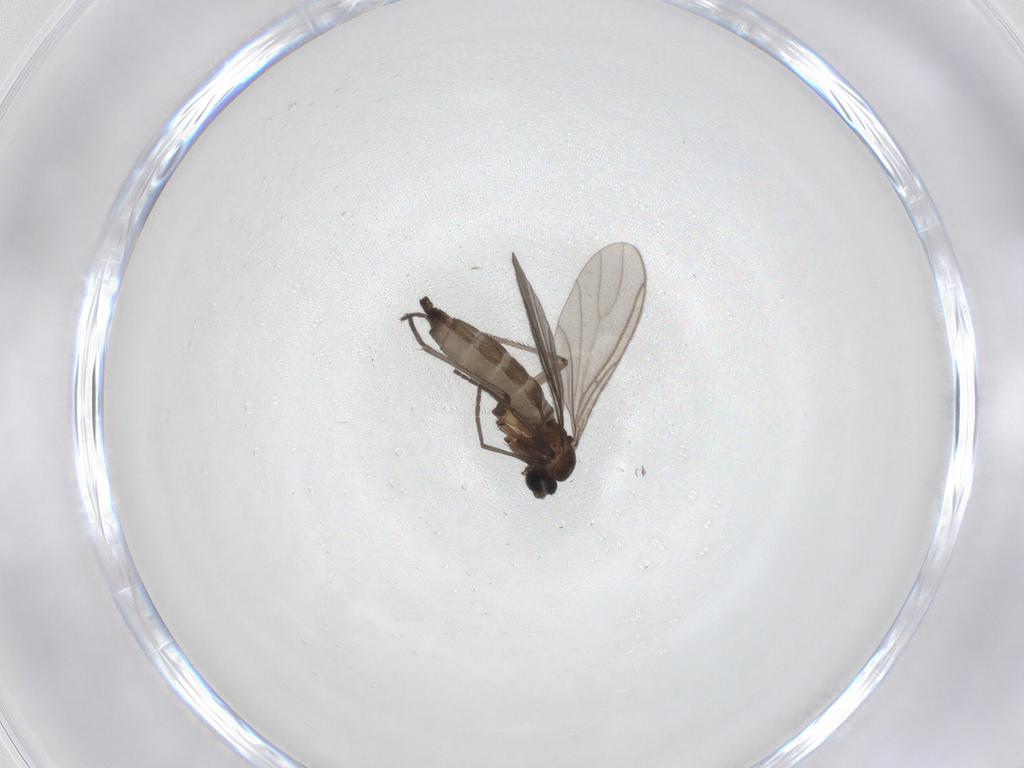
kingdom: Animalia
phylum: Arthropoda
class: Insecta
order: Diptera
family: Sciaridae
